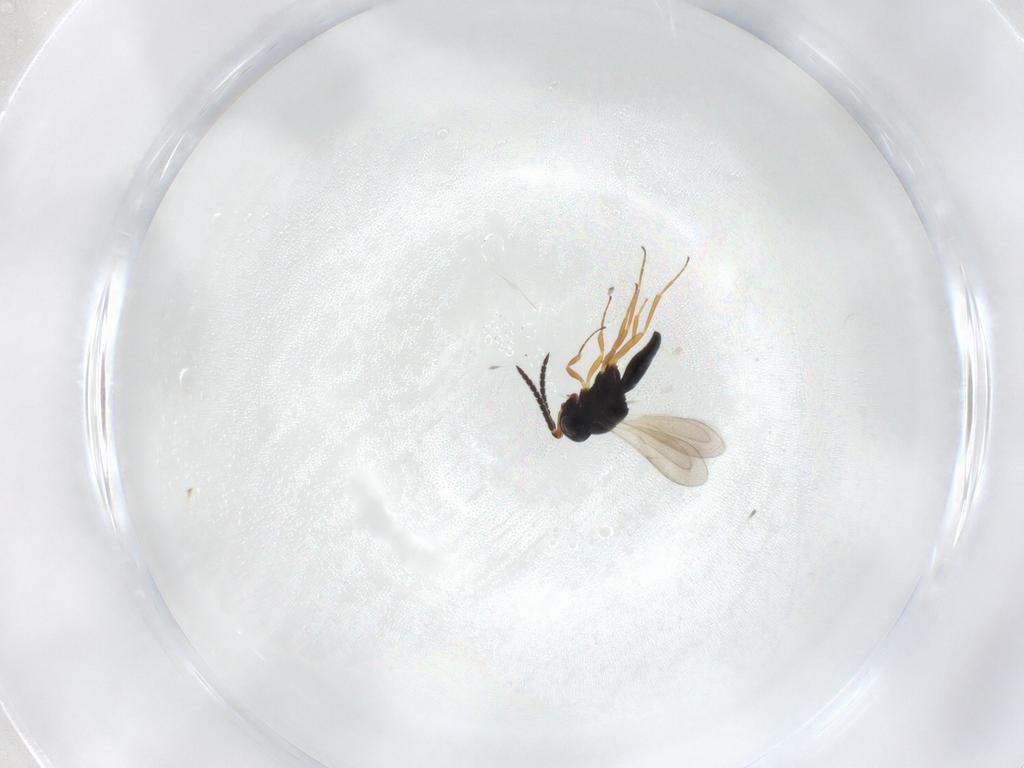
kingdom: Animalia
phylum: Arthropoda
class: Insecta
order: Hymenoptera
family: Scelionidae
